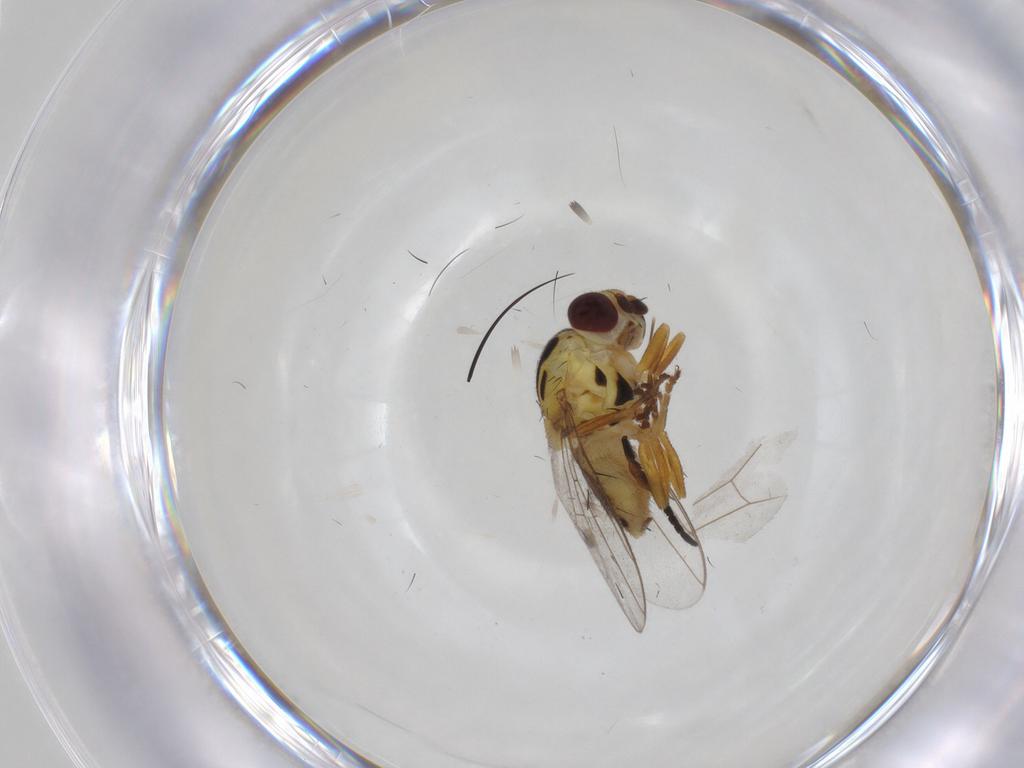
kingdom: Animalia
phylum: Arthropoda
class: Insecta
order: Diptera
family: Chloropidae
